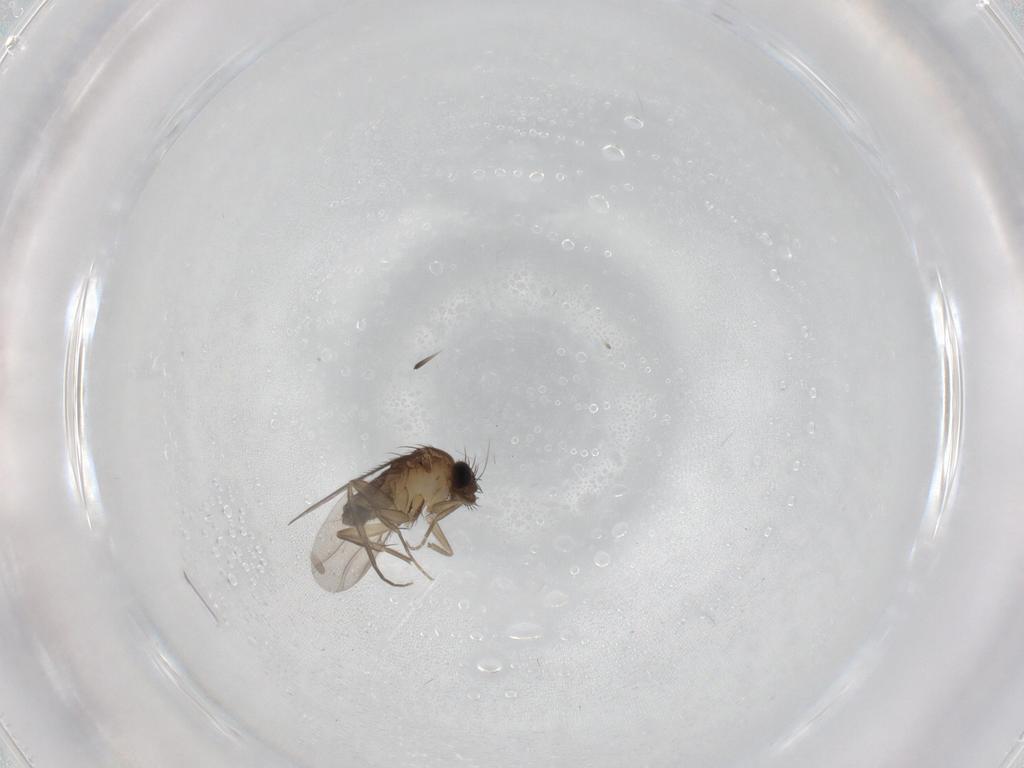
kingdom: Animalia
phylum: Arthropoda
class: Insecta
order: Diptera
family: Phoridae
